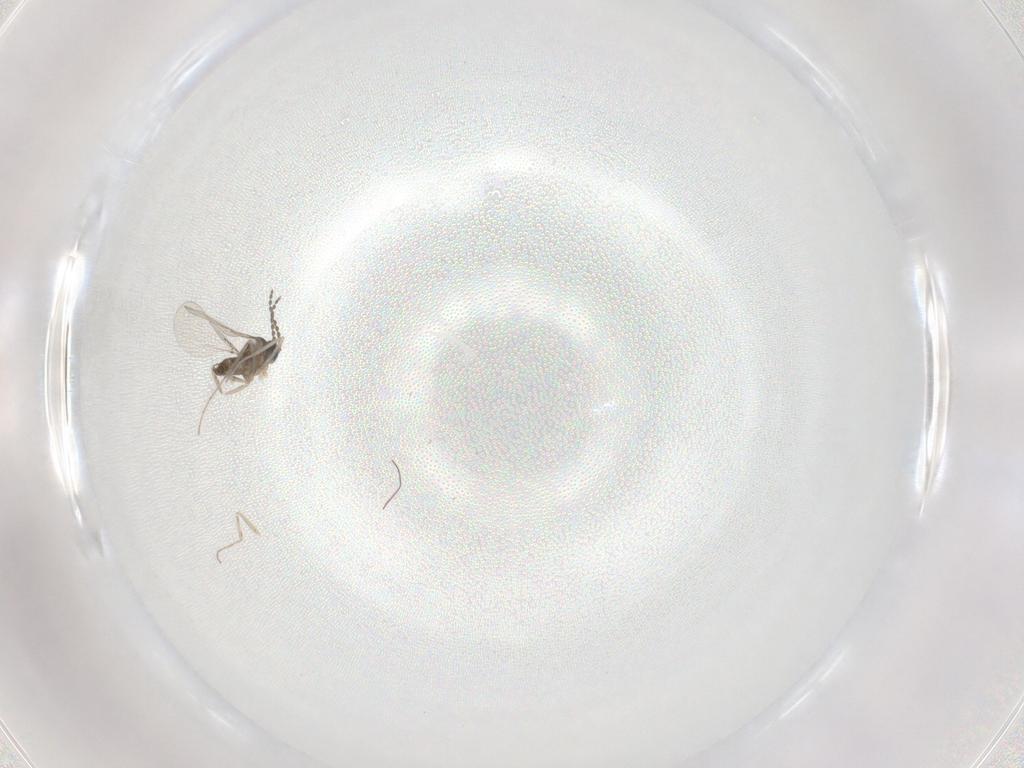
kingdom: Animalia
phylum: Arthropoda
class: Insecta
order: Diptera
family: Cecidomyiidae
